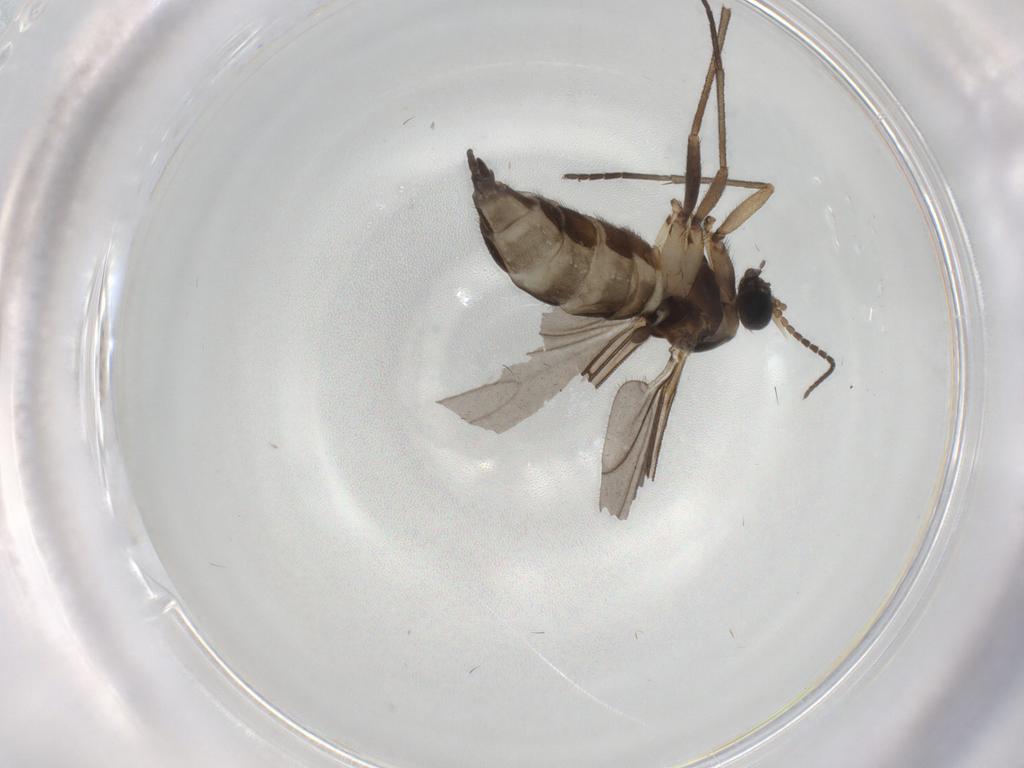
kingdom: Animalia
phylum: Arthropoda
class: Insecta
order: Diptera
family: Sciaridae
